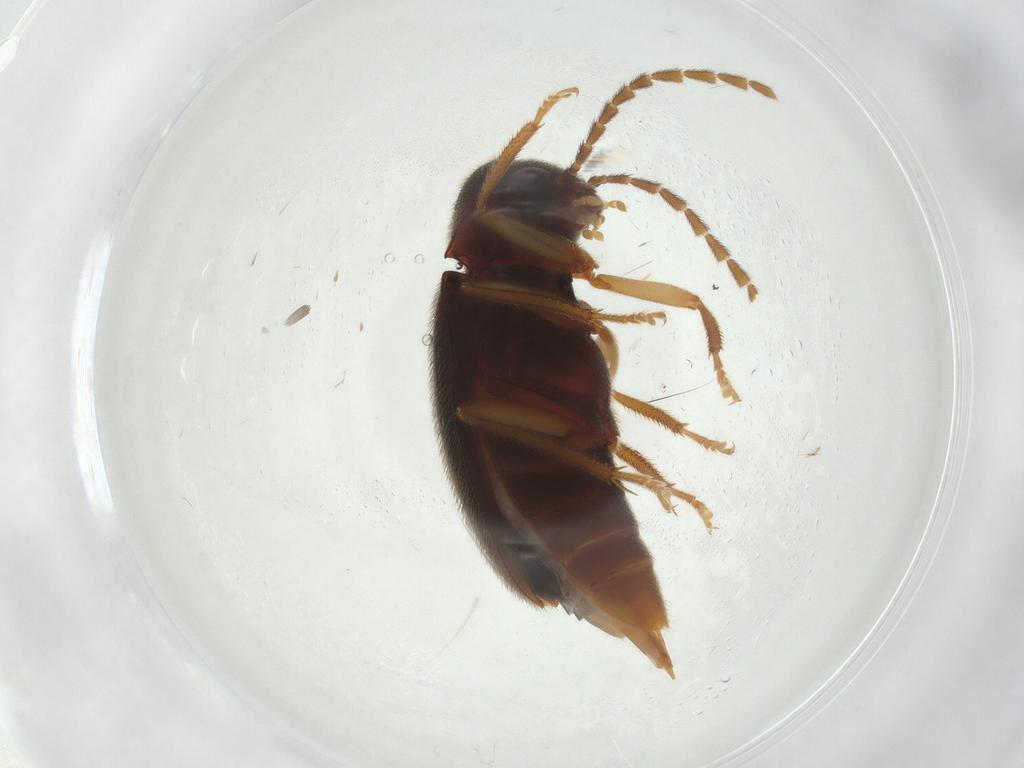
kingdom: Animalia
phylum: Arthropoda
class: Insecta
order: Coleoptera
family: Ptilodactylidae
